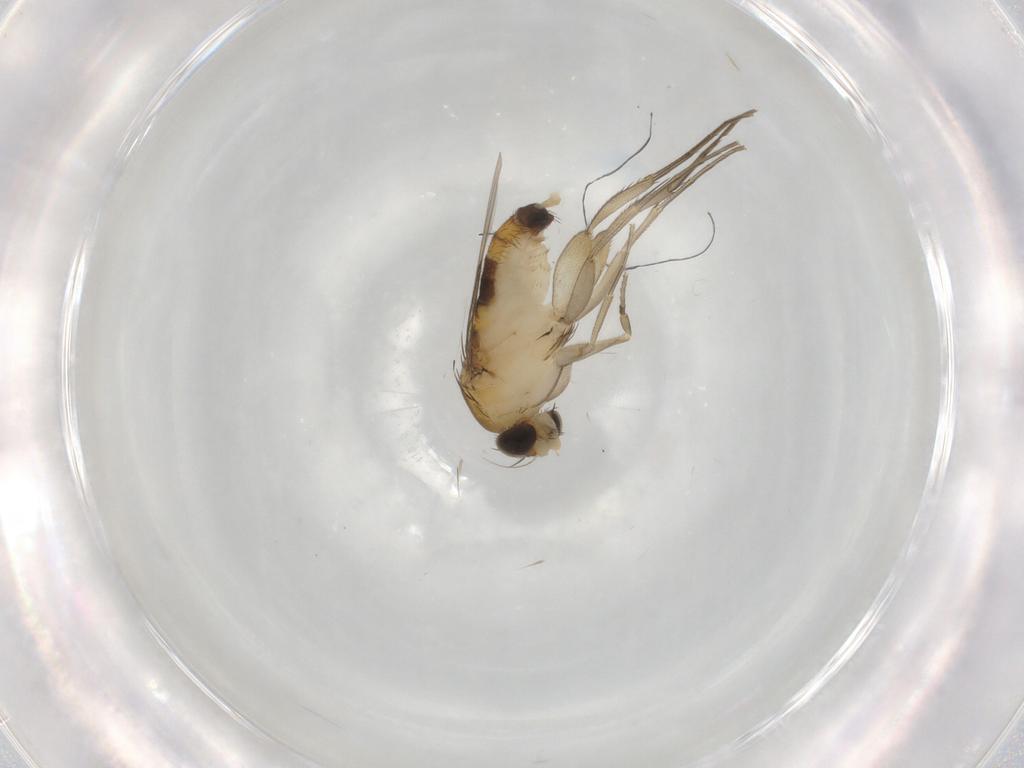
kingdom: Animalia
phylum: Arthropoda
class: Insecta
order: Diptera
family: Phoridae
